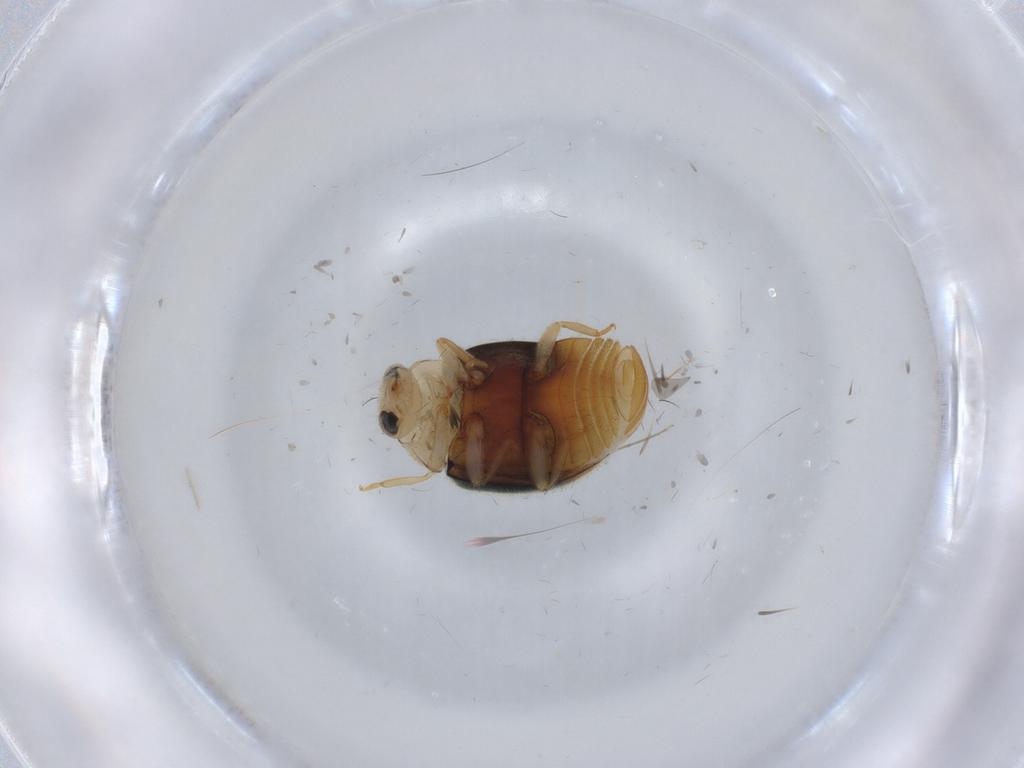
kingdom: Animalia
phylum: Arthropoda
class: Insecta
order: Coleoptera
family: Coccinellidae
